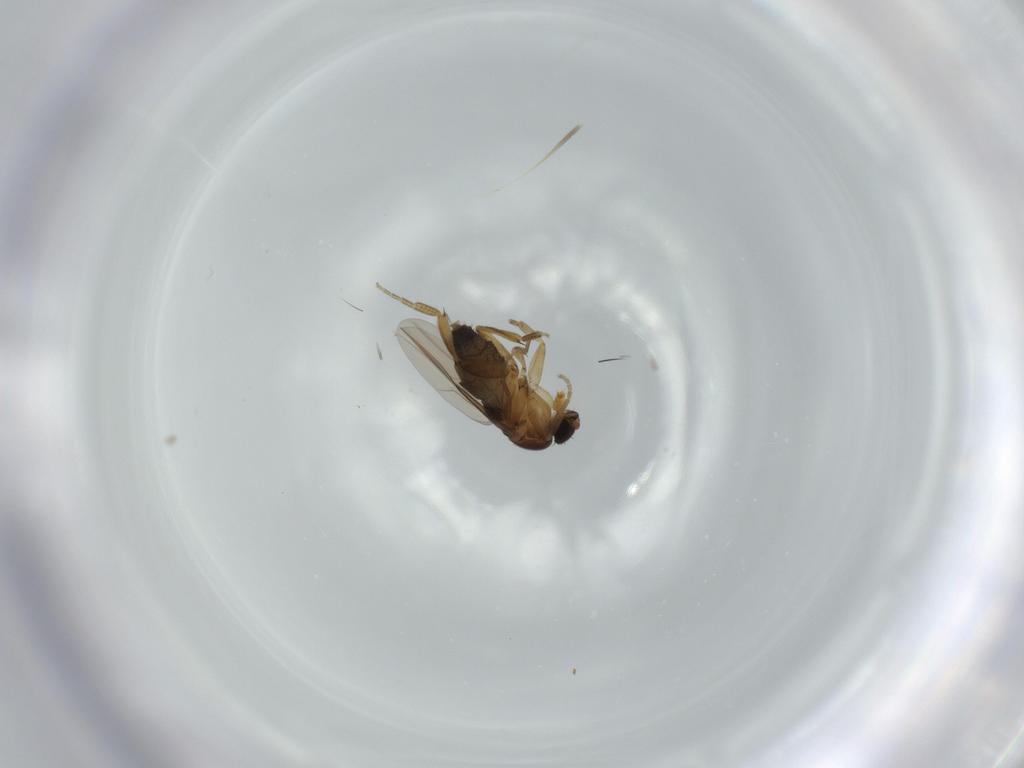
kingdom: Animalia
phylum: Arthropoda
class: Insecta
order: Diptera
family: Phoridae
